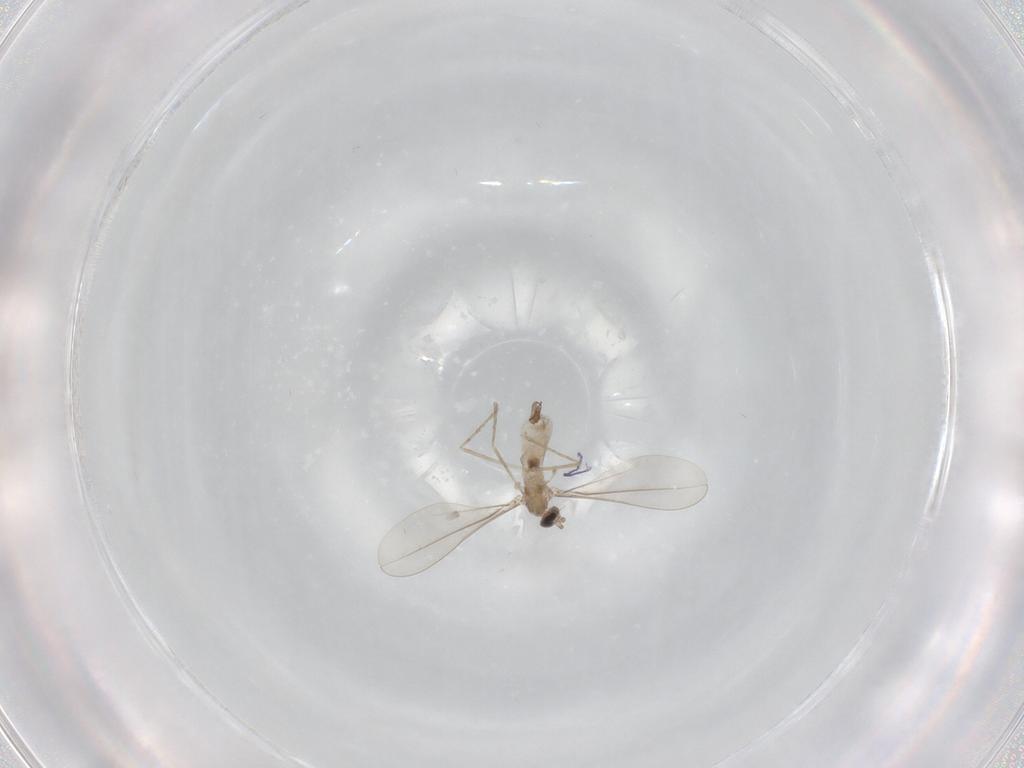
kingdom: Animalia
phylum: Arthropoda
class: Insecta
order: Diptera
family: Cecidomyiidae
